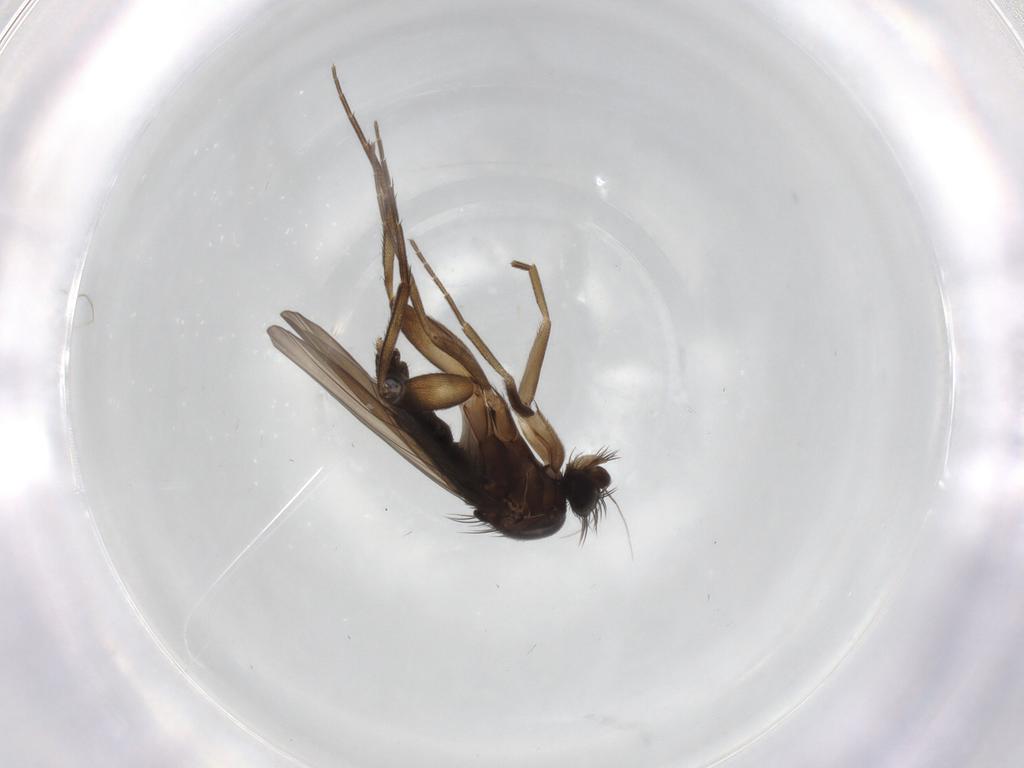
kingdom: Animalia
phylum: Arthropoda
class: Insecta
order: Diptera
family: Phoridae
